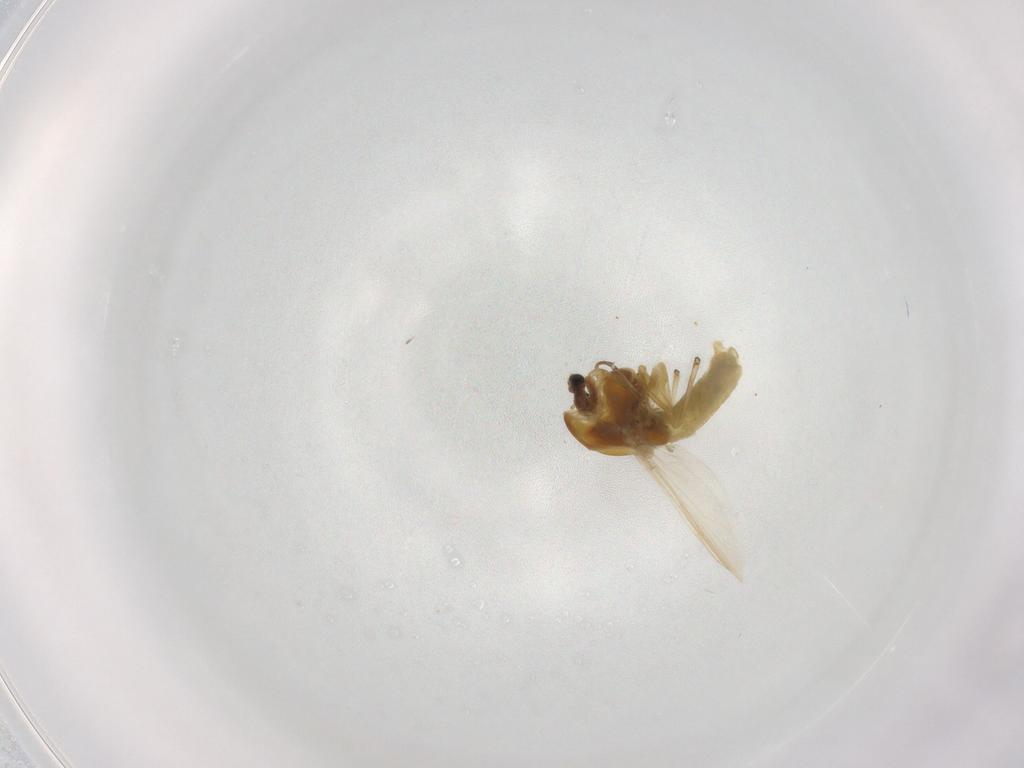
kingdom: Animalia
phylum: Arthropoda
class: Insecta
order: Diptera
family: Chironomidae
